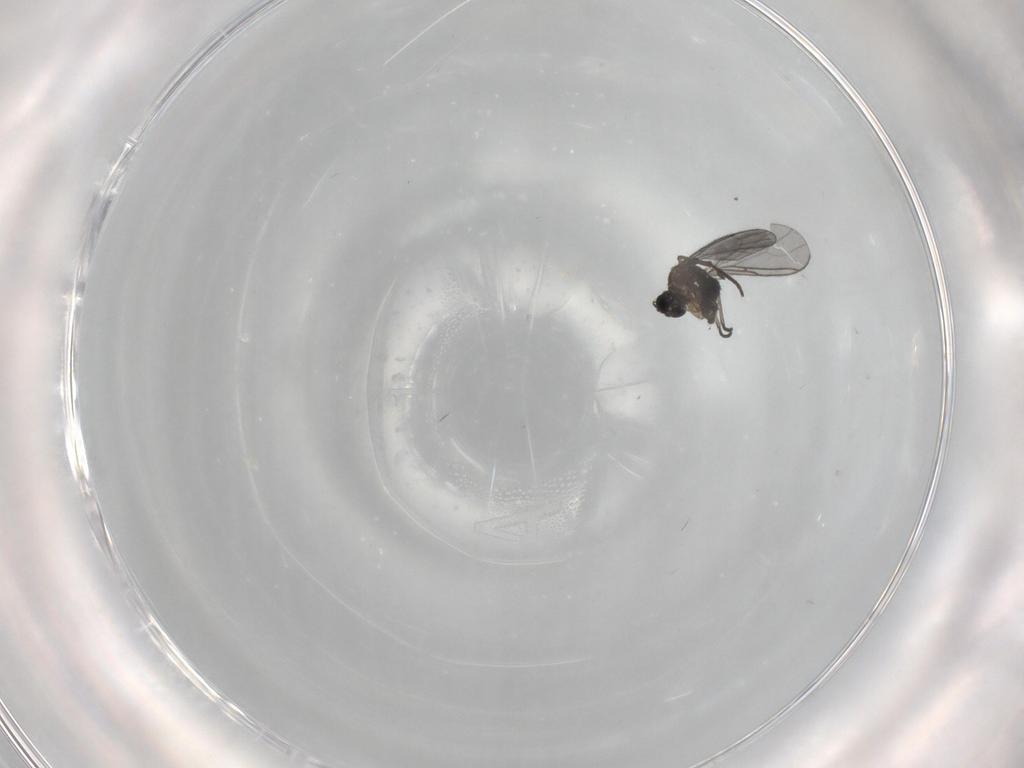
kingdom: Animalia
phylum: Arthropoda
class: Insecta
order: Diptera
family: Sciaridae
